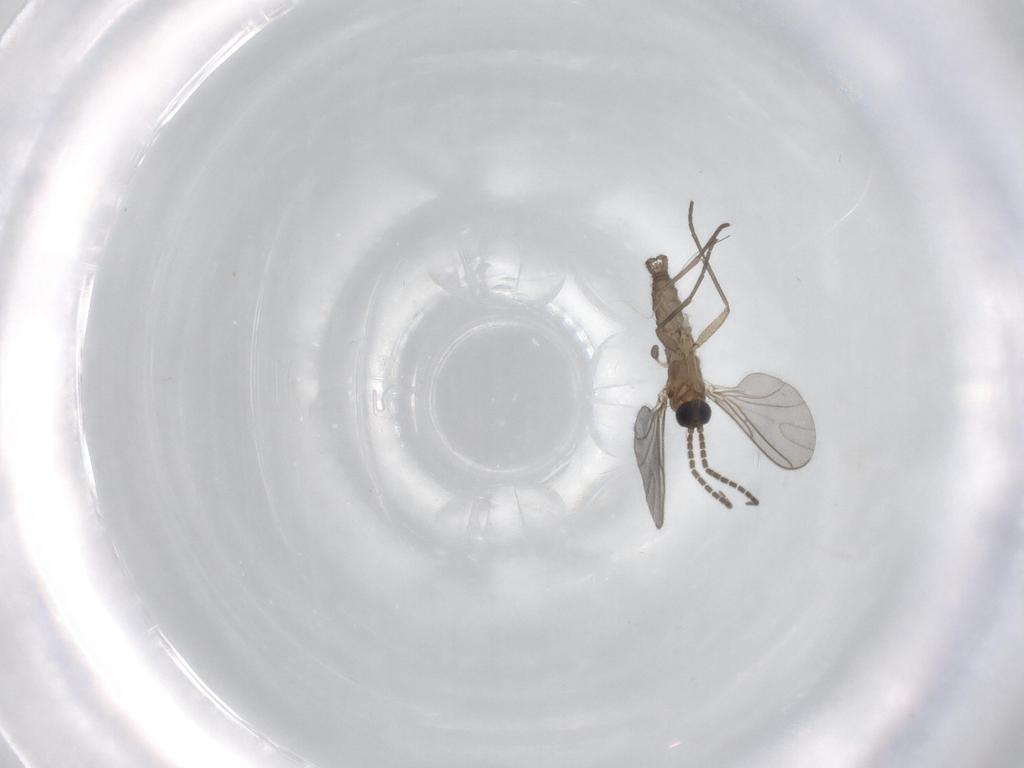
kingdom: Animalia
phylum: Arthropoda
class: Insecta
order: Diptera
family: Sciaridae
